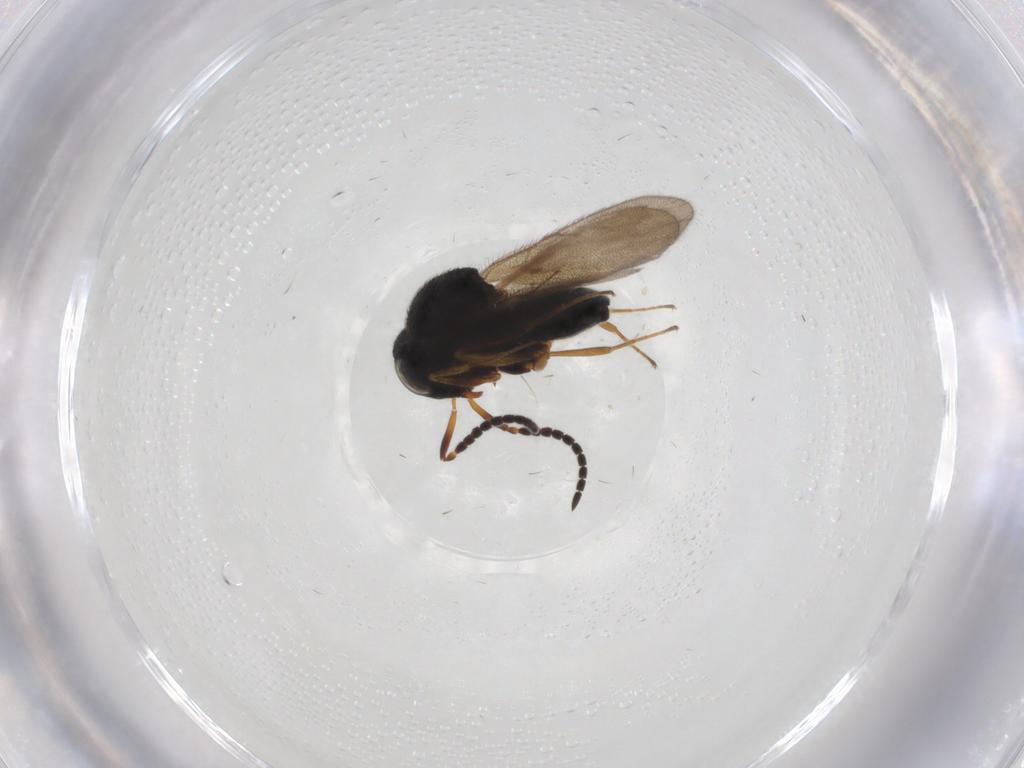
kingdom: Animalia
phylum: Arthropoda
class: Insecta
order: Hymenoptera
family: Scelionidae
